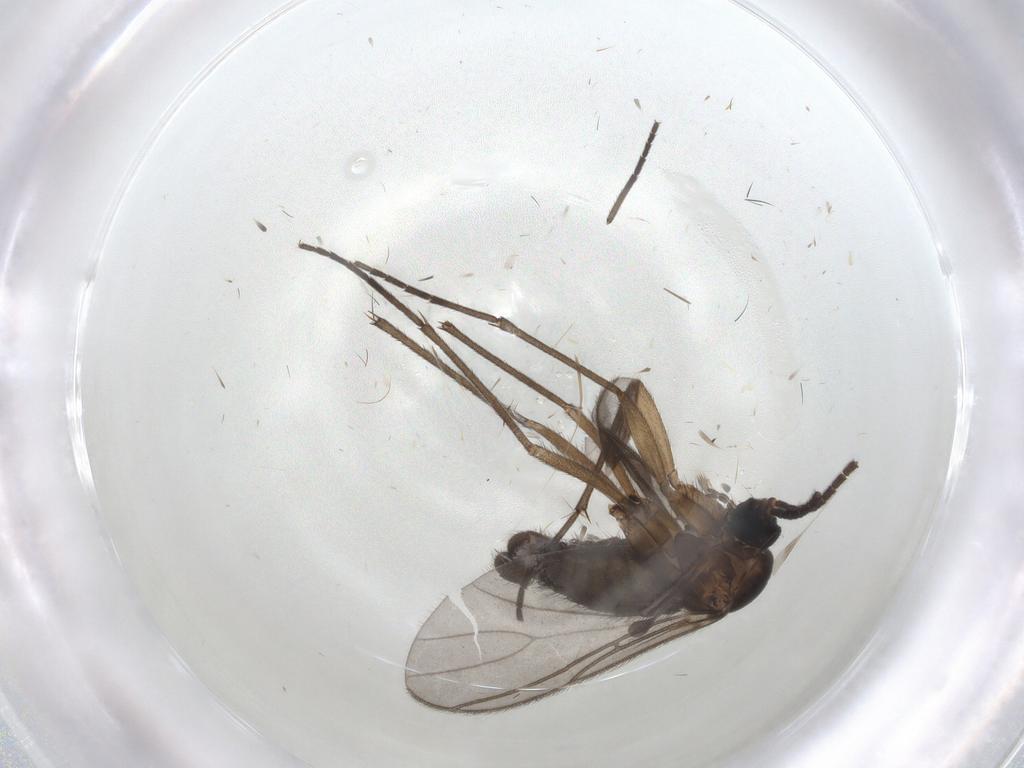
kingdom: Animalia
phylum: Arthropoda
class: Insecta
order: Diptera
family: Sciaridae
